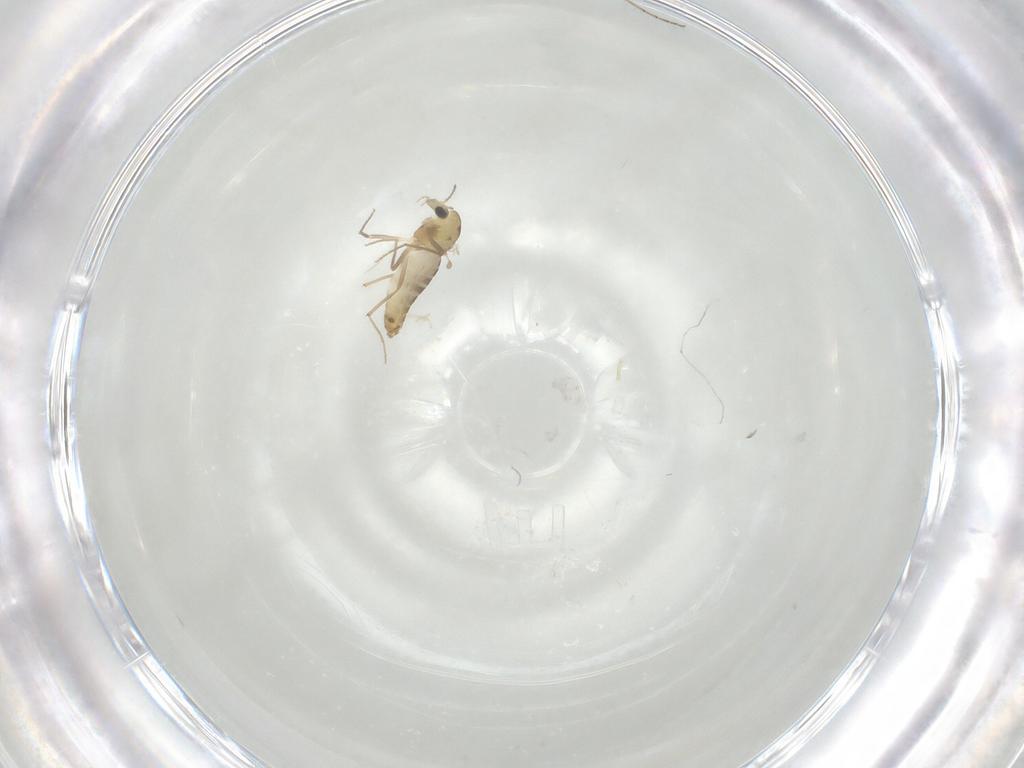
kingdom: Animalia
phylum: Arthropoda
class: Insecta
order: Diptera
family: Chironomidae
